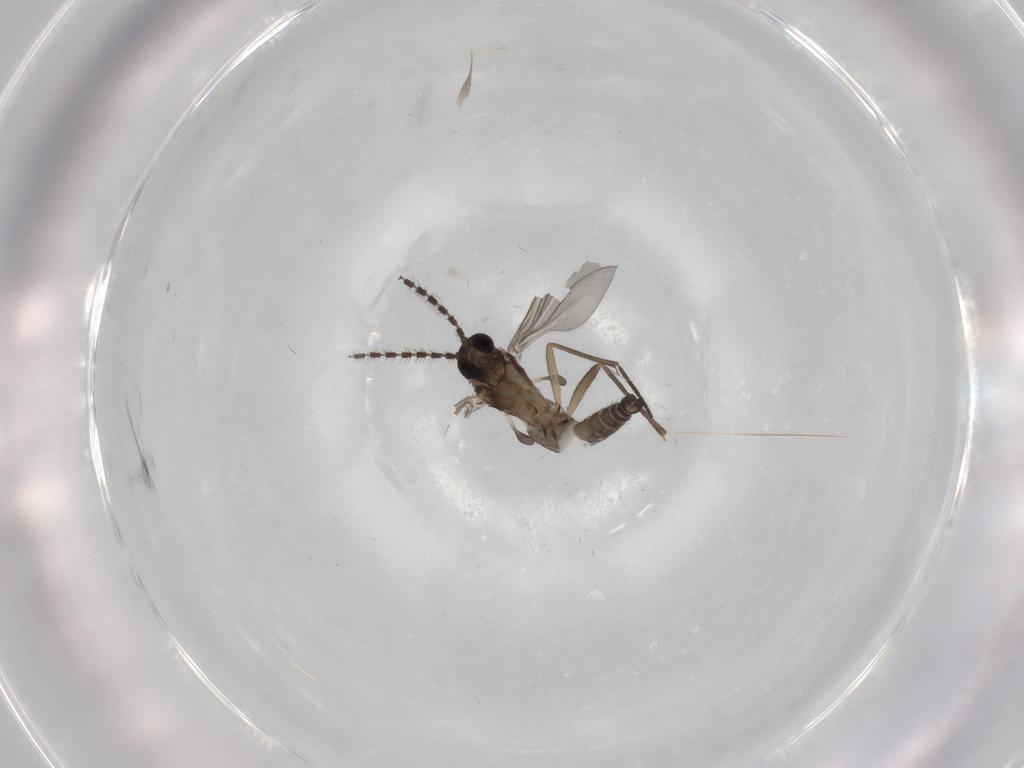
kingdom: Animalia
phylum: Arthropoda
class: Insecta
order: Diptera
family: Sciaridae
